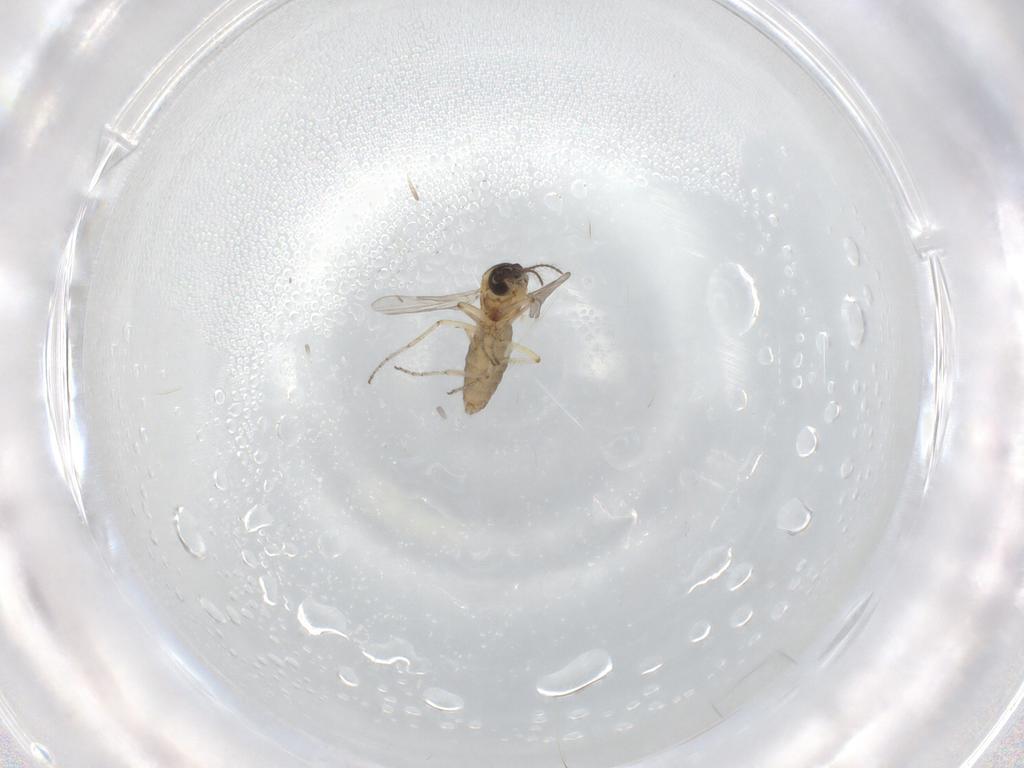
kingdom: Animalia
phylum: Arthropoda
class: Insecta
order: Diptera
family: Ceratopogonidae
